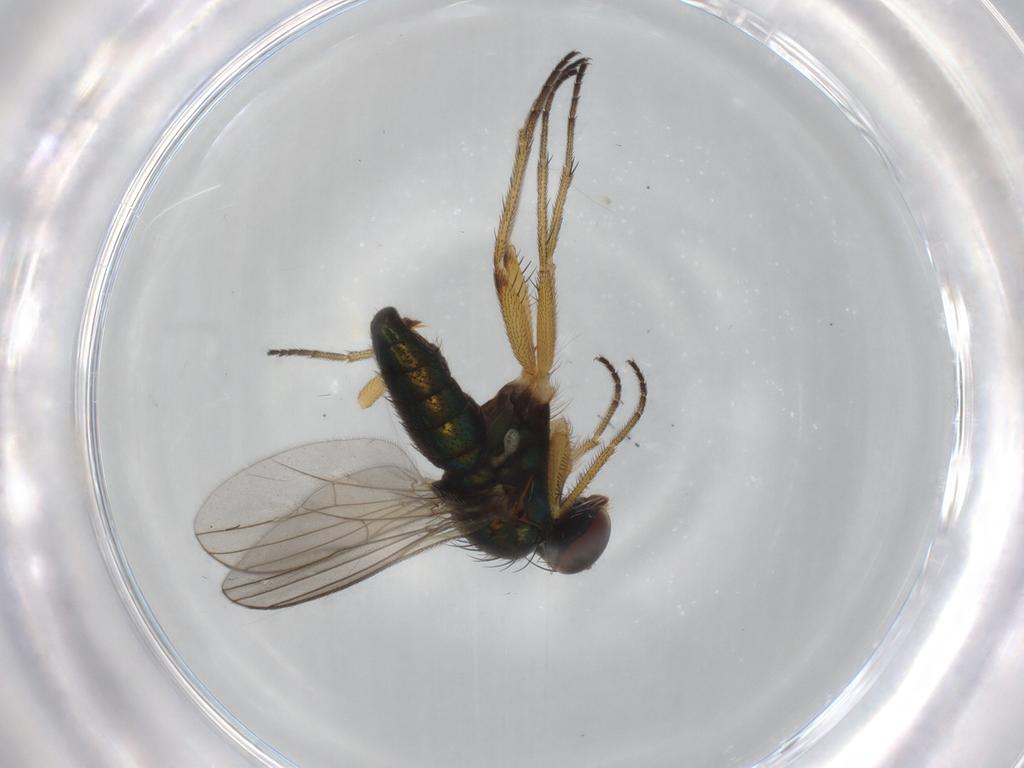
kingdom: Animalia
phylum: Arthropoda
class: Insecta
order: Diptera
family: Dolichopodidae
